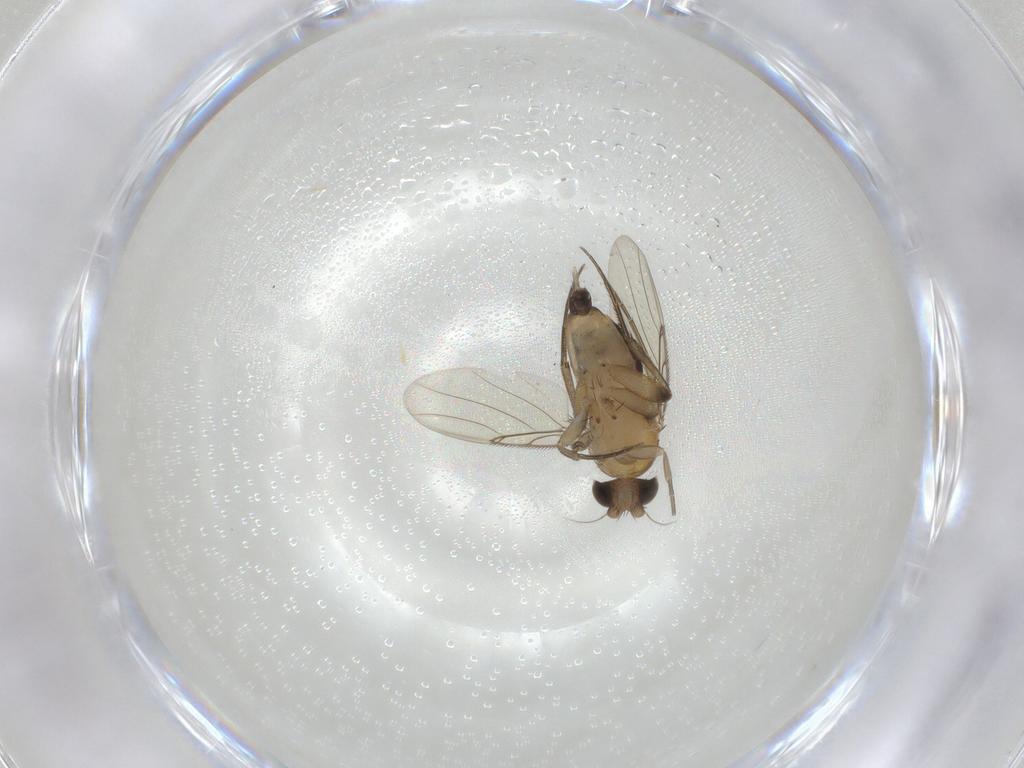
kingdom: Animalia
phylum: Arthropoda
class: Insecta
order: Diptera
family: Phoridae
